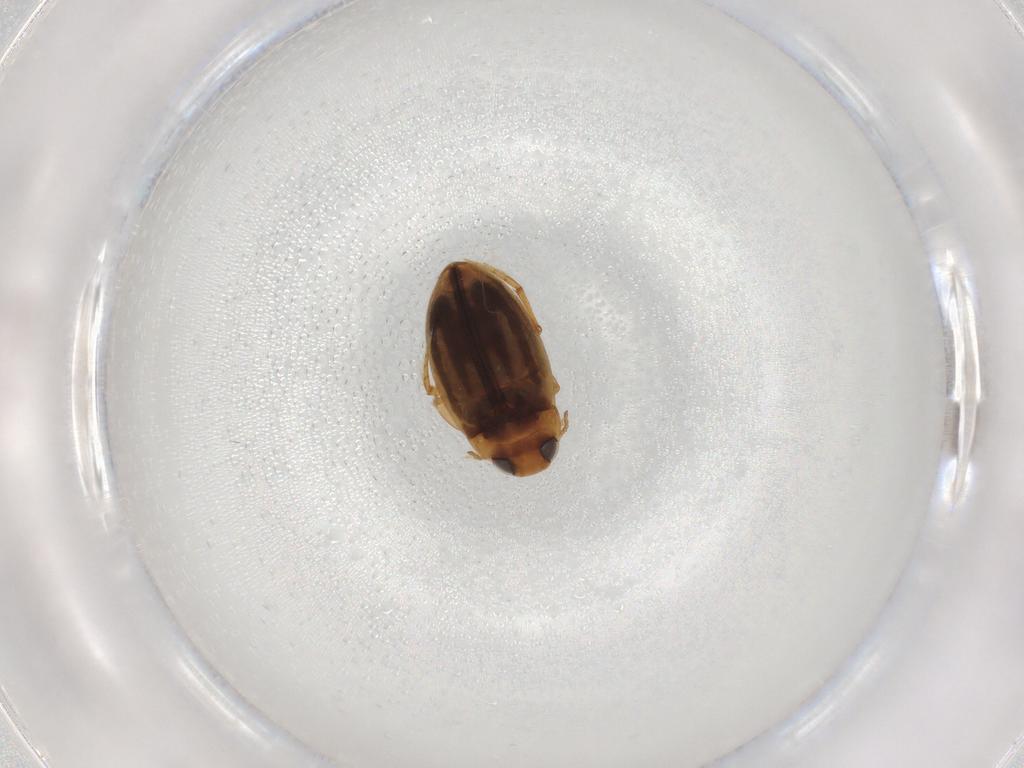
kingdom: Animalia
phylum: Arthropoda
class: Insecta
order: Coleoptera
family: Dytiscidae
